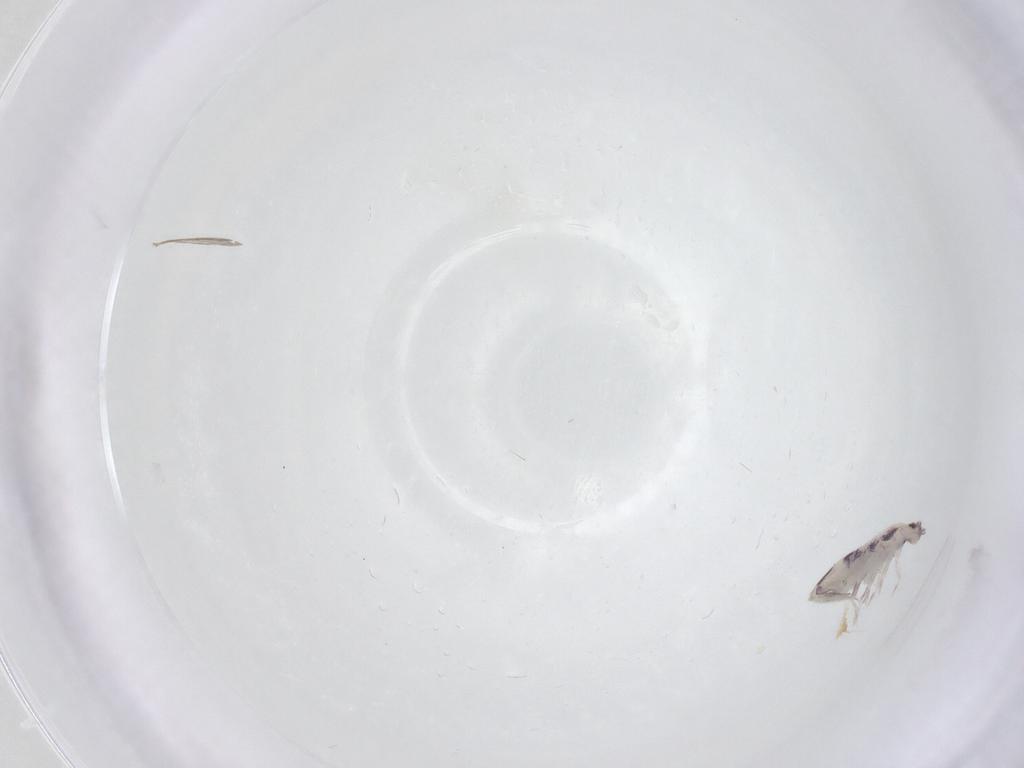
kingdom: Animalia
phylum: Arthropoda
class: Collembola
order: Entomobryomorpha
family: Entomobryidae
